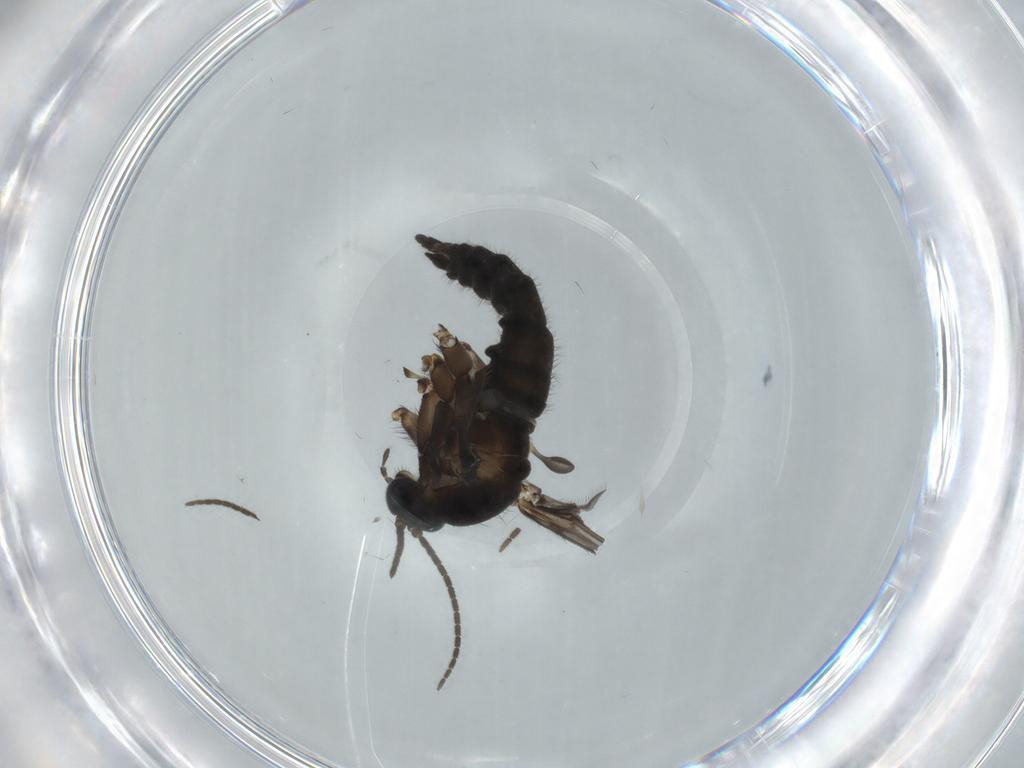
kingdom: Animalia
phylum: Arthropoda
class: Insecta
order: Diptera
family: Sciaridae
